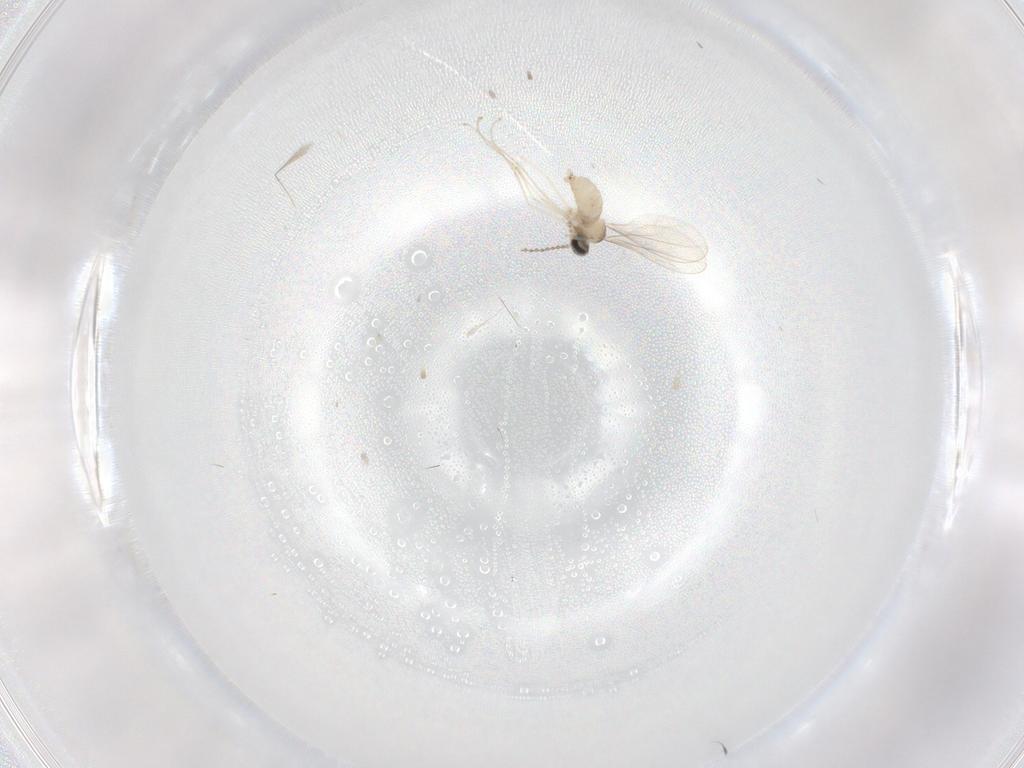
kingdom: Animalia
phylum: Arthropoda
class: Insecta
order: Diptera
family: Cecidomyiidae
